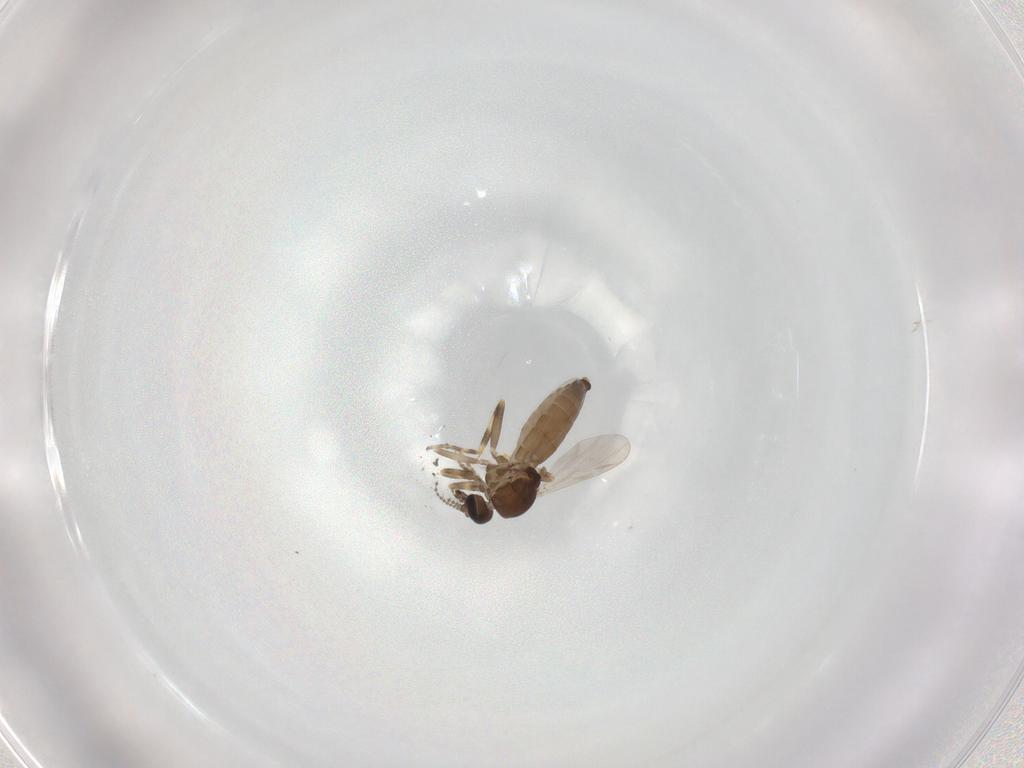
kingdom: Animalia
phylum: Arthropoda
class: Insecta
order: Diptera
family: Ceratopogonidae
